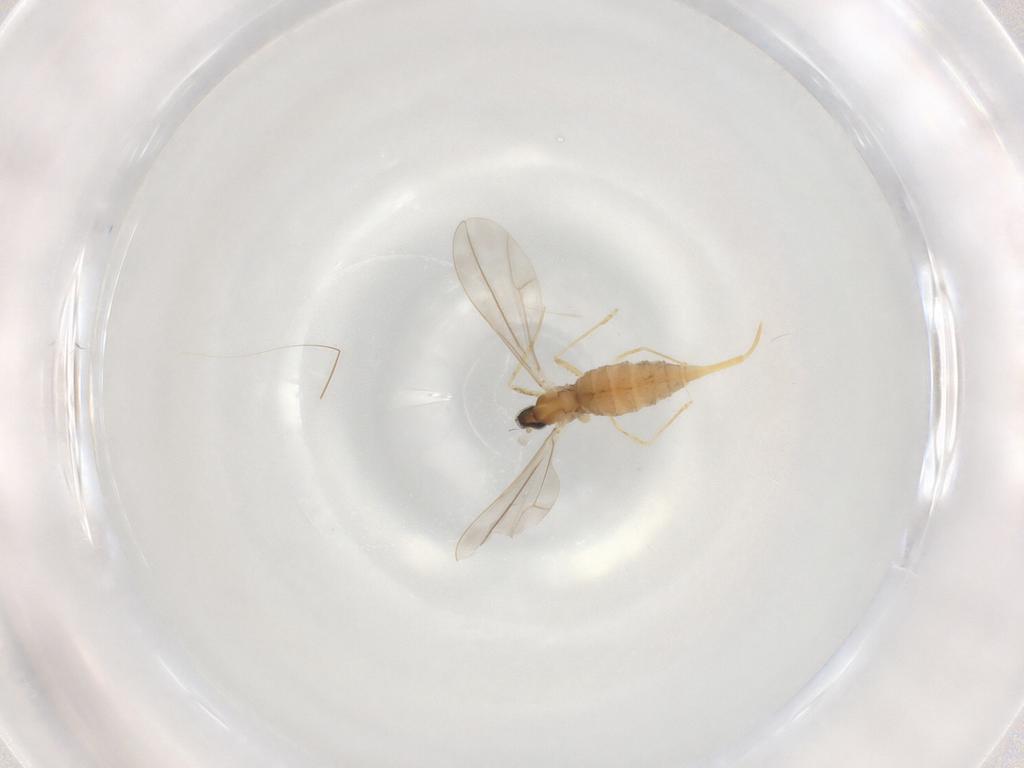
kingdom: Animalia
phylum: Arthropoda
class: Insecta
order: Diptera
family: Cecidomyiidae
